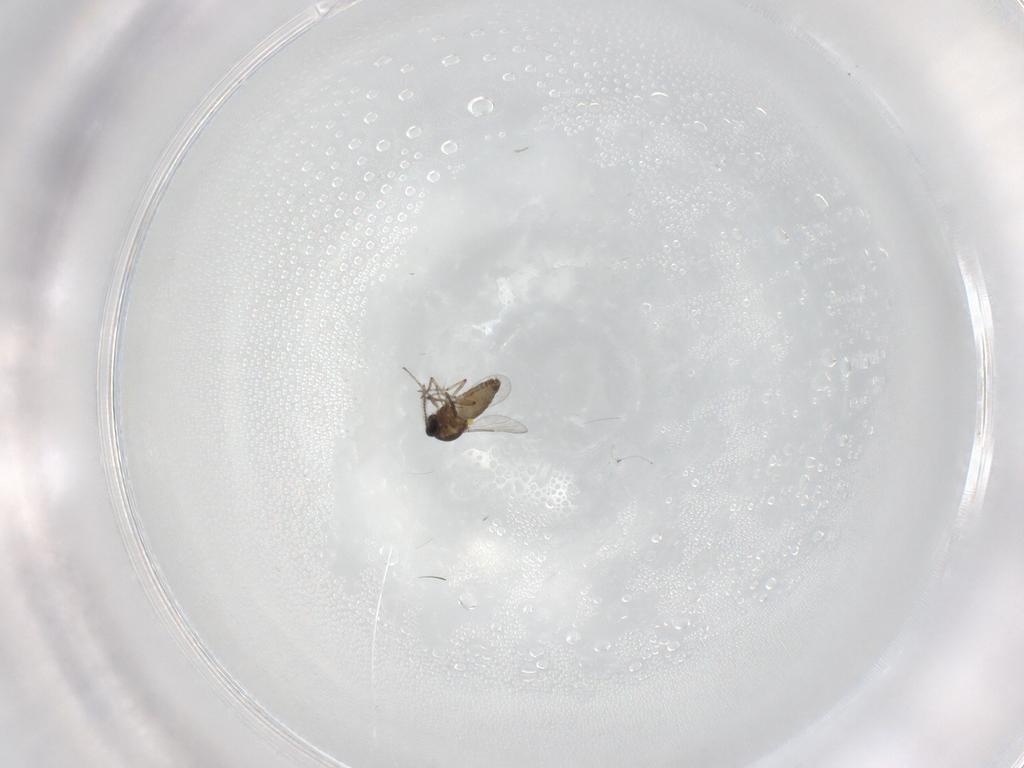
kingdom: Animalia
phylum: Arthropoda
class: Insecta
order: Diptera
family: Ceratopogonidae
